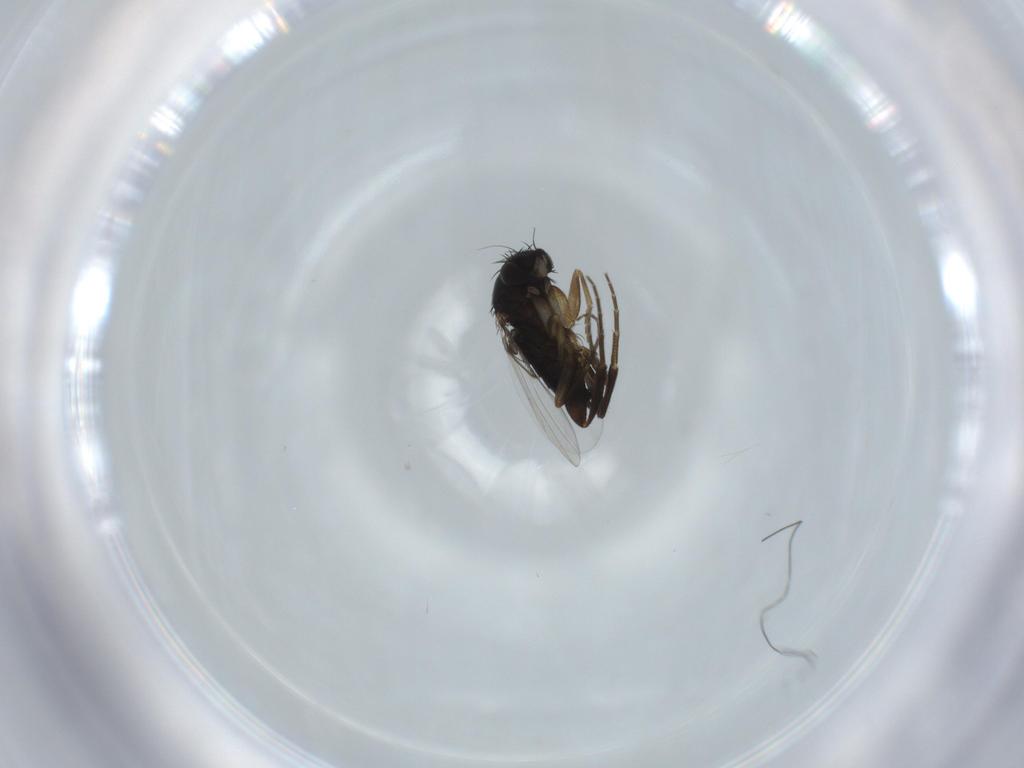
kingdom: Animalia
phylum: Arthropoda
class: Insecta
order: Diptera
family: Phoridae
